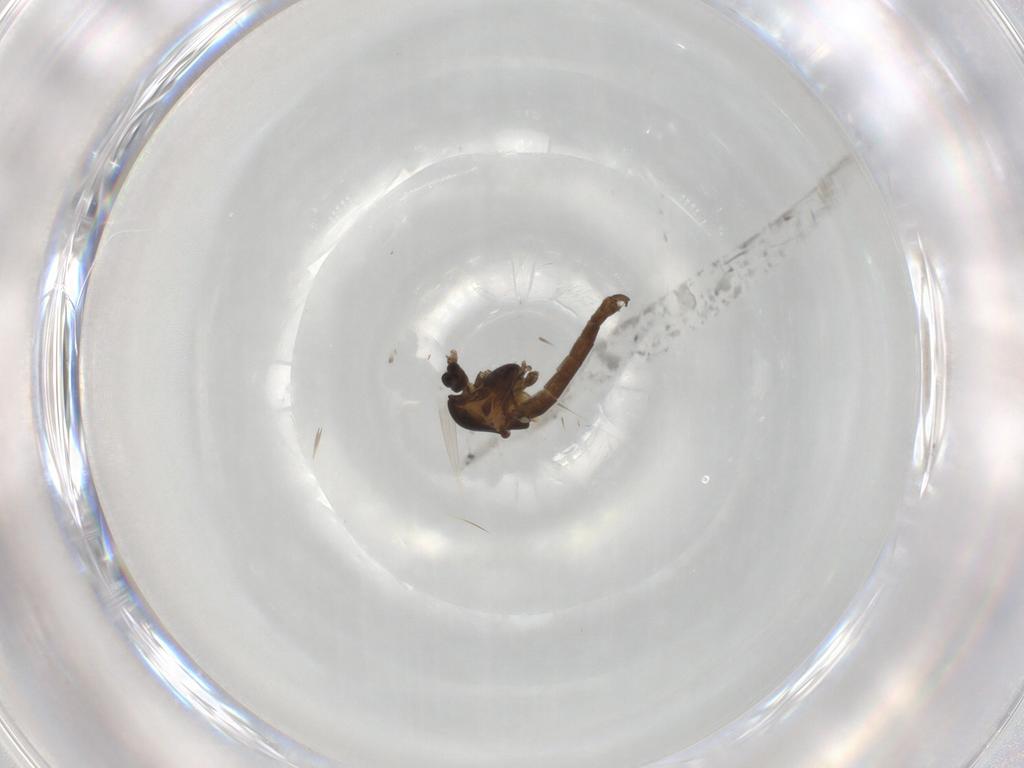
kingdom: Animalia
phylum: Arthropoda
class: Insecta
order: Diptera
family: Chironomidae
